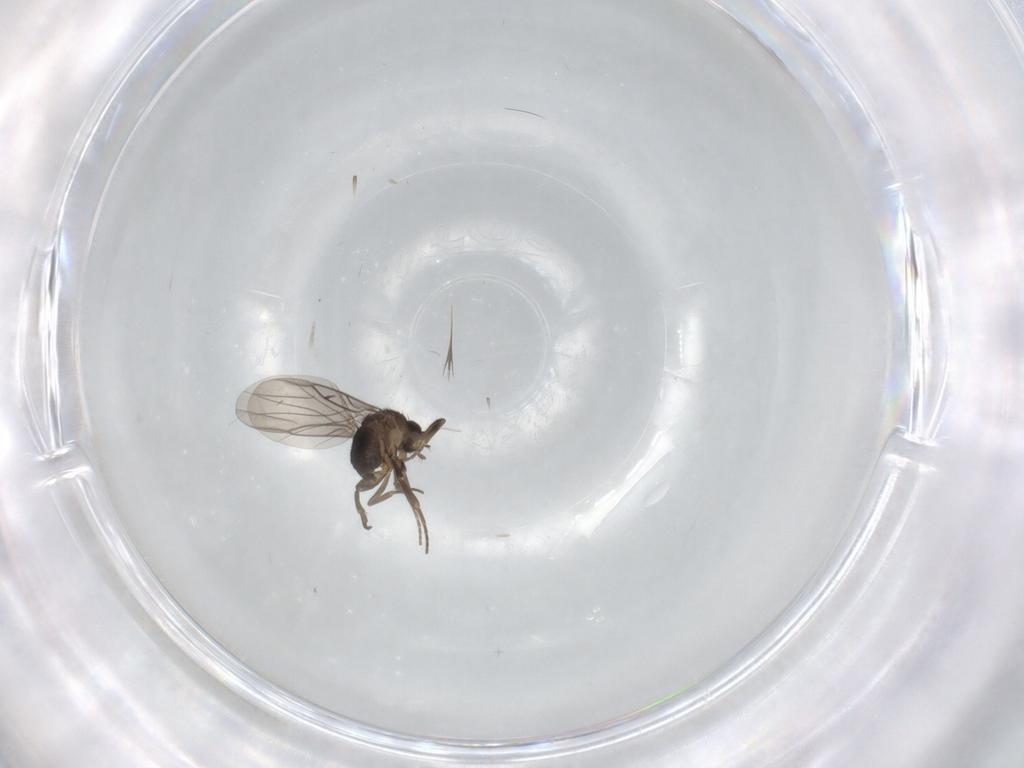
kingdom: Animalia
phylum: Arthropoda
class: Insecta
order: Diptera
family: Phoridae
